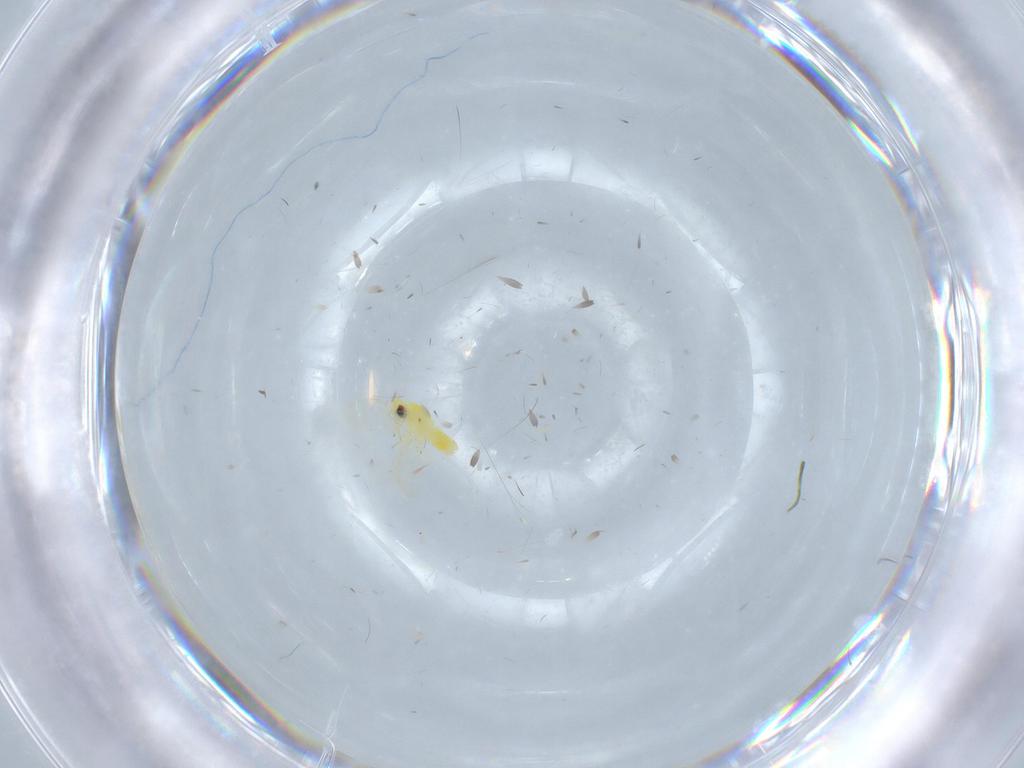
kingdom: Animalia
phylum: Arthropoda
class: Insecta
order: Hemiptera
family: Aleyrodidae
